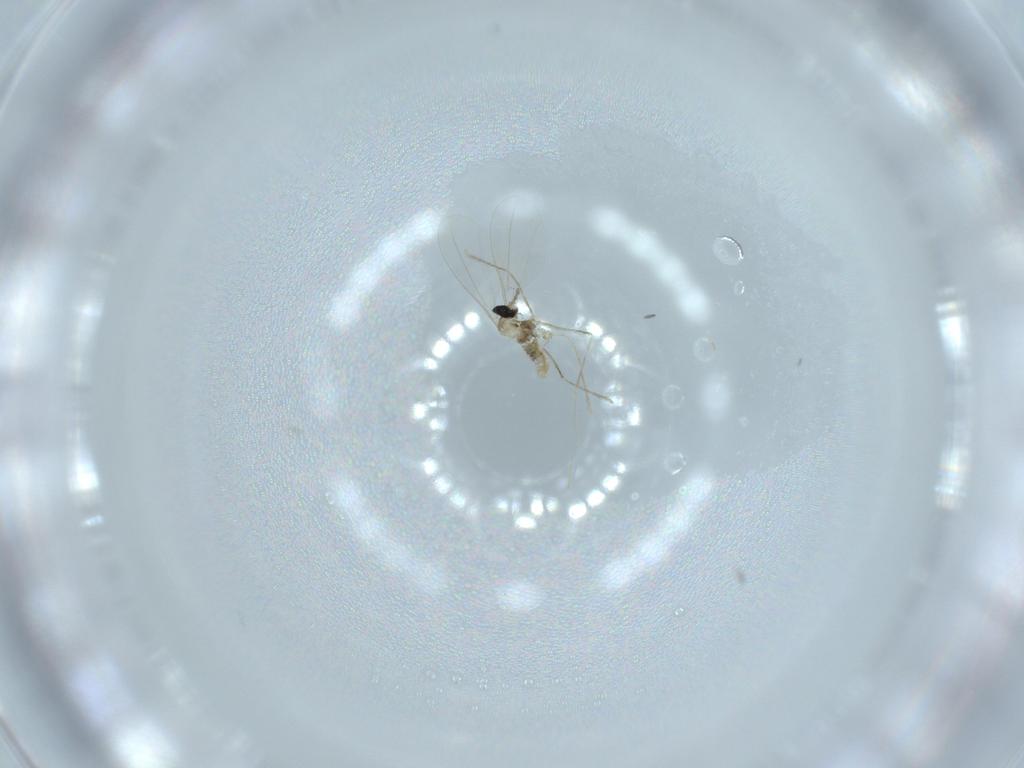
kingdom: Animalia
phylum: Arthropoda
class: Insecta
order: Diptera
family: Cecidomyiidae
